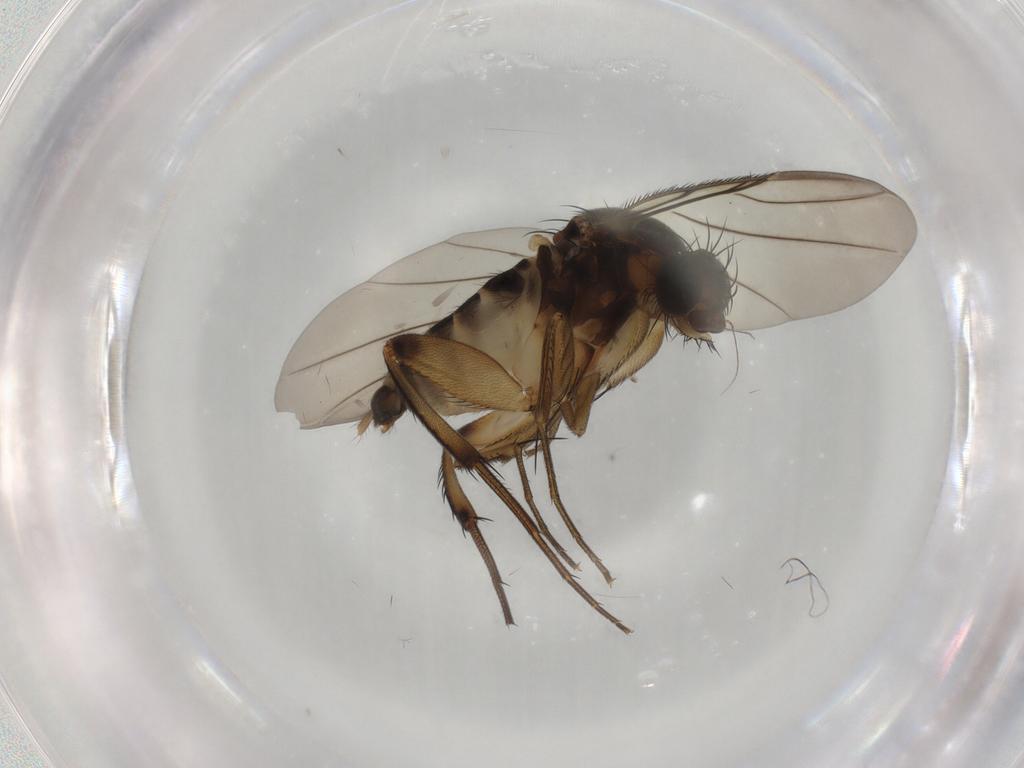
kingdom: Animalia
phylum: Arthropoda
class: Insecta
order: Diptera
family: Phoridae
